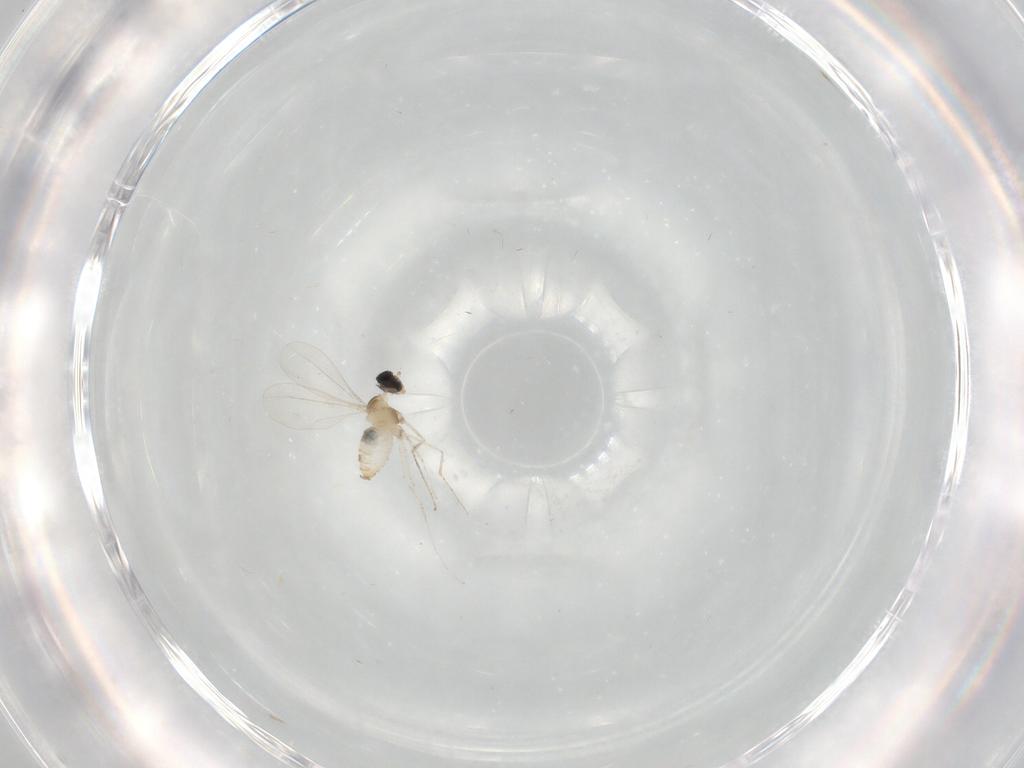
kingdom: Animalia
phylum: Arthropoda
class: Insecta
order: Diptera
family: Cecidomyiidae
